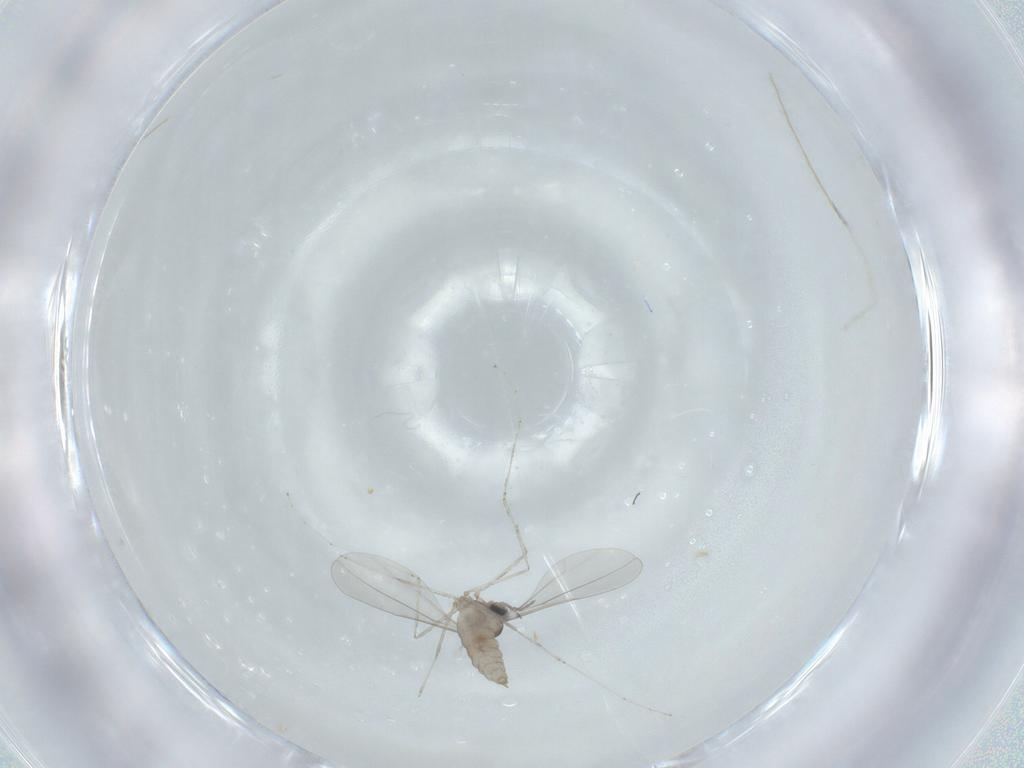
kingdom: Animalia
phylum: Arthropoda
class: Insecta
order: Diptera
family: Cecidomyiidae
